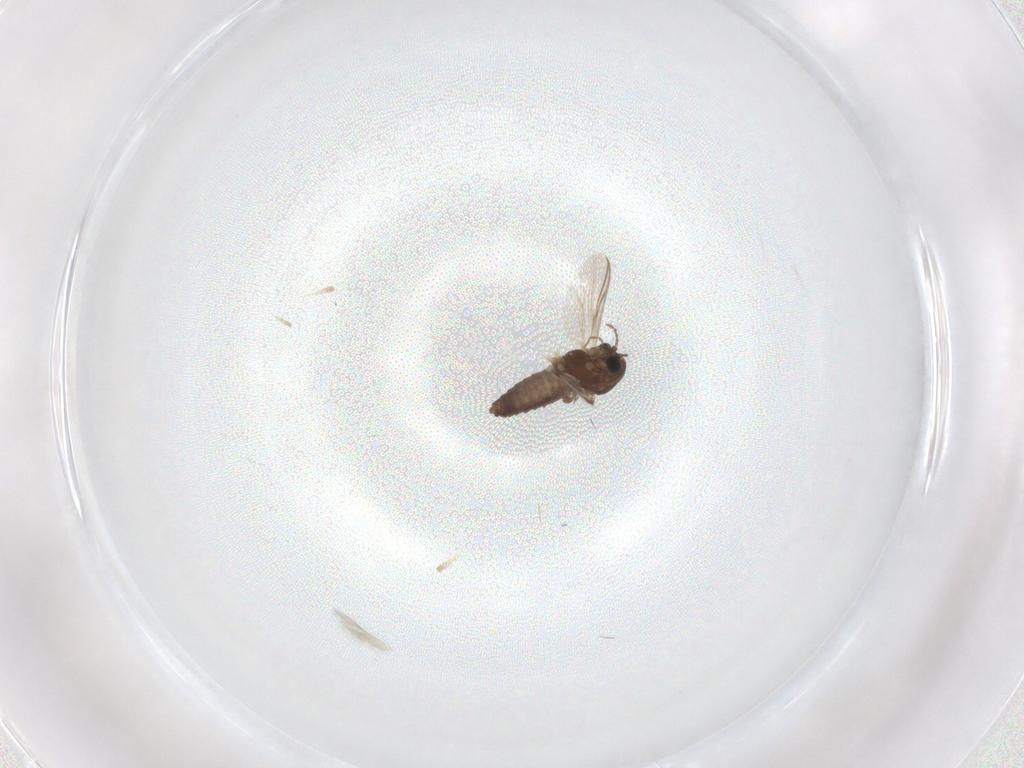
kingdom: Animalia
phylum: Arthropoda
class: Insecta
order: Diptera
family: Chironomidae
